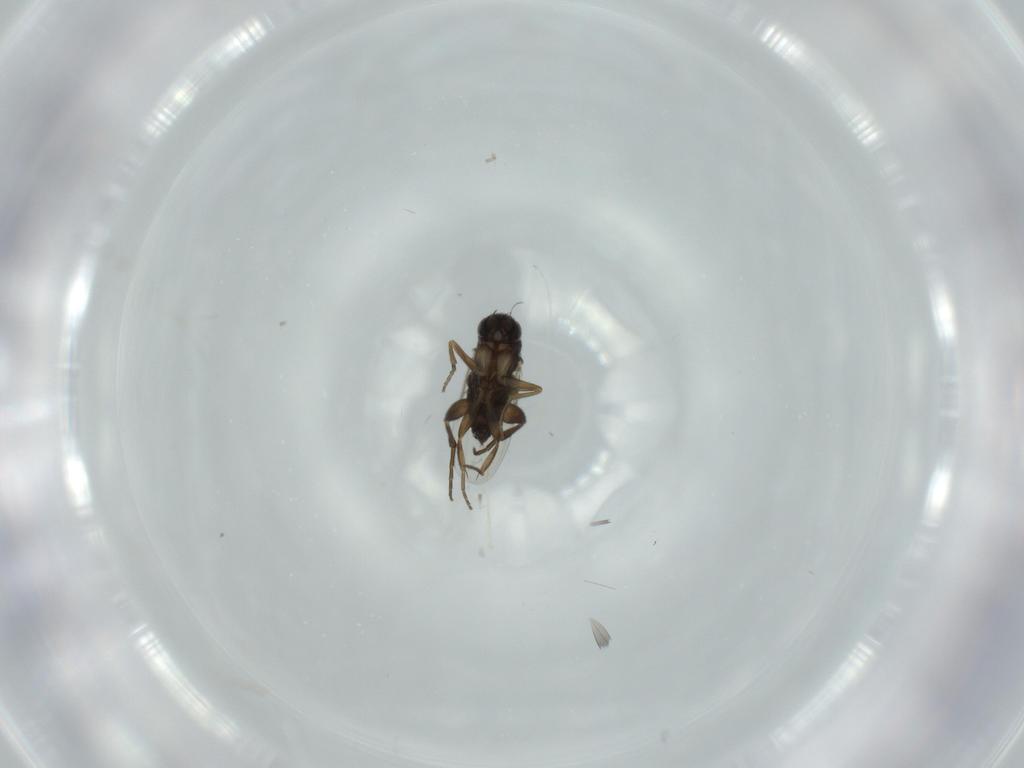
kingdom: Animalia
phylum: Arthropoda
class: Insecta
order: Diptera
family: Phoridae
